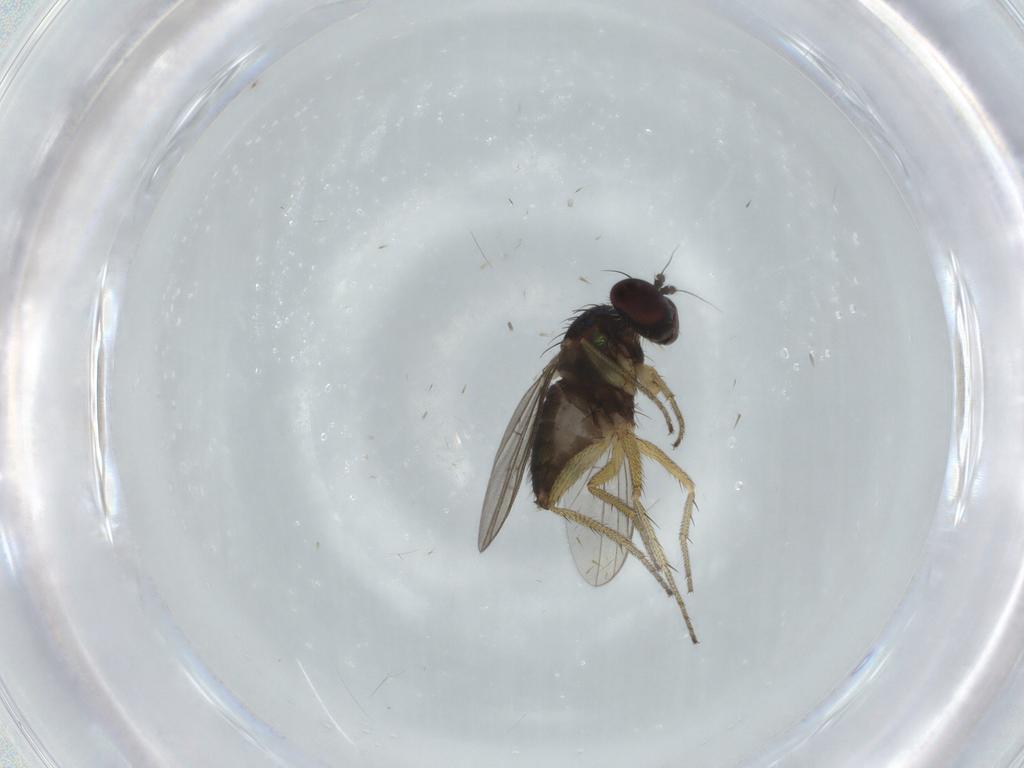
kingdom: Animalia
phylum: Arthropoda
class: Insecta
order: Diptera
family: Dolichopodidae
